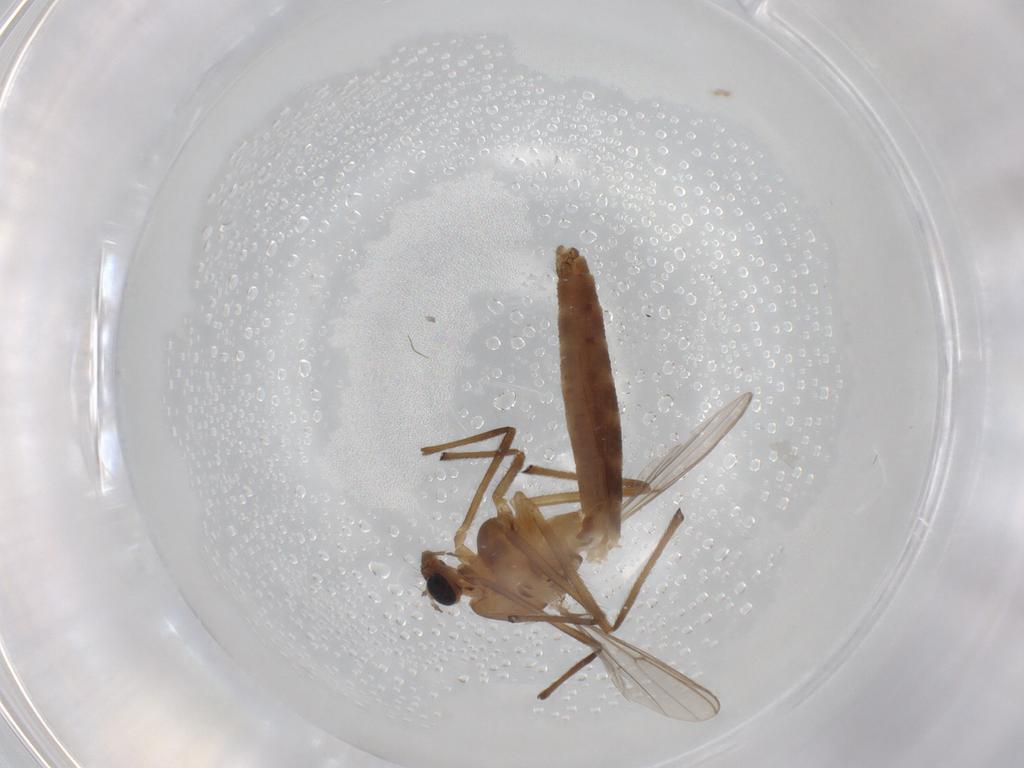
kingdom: Animalia
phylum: Arthropoda
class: Insecta
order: Diptera
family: Chironomidae
